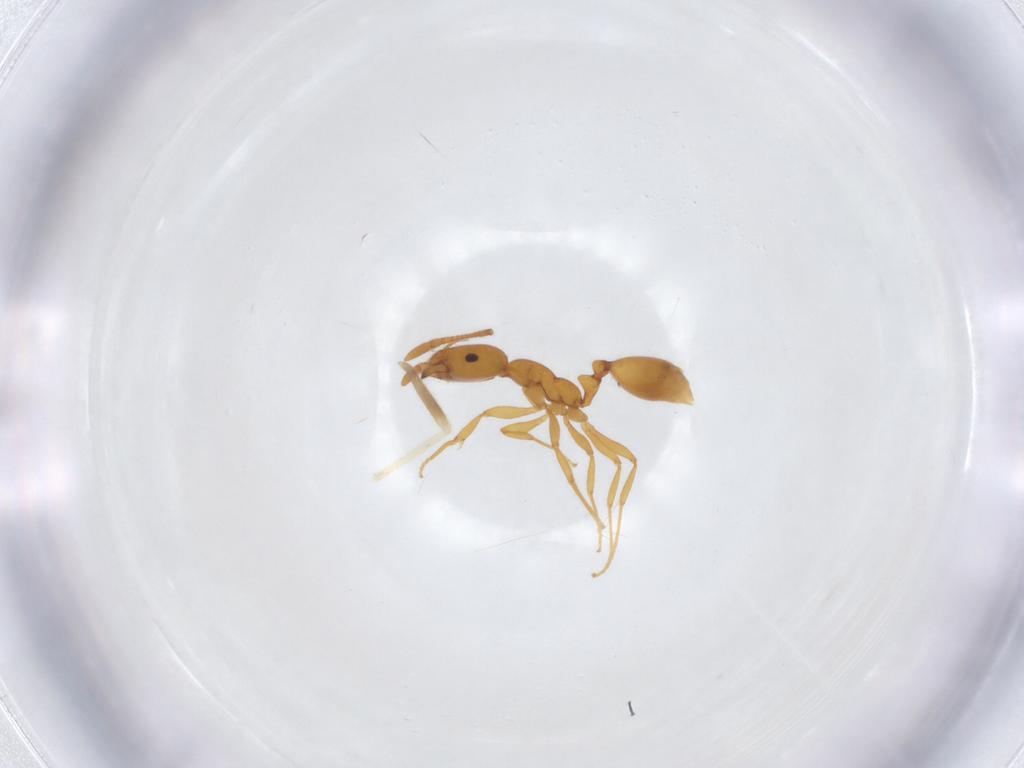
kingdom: Animalia
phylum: Arthropoda
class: Insecta
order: Hymenoptera
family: Formicidae
